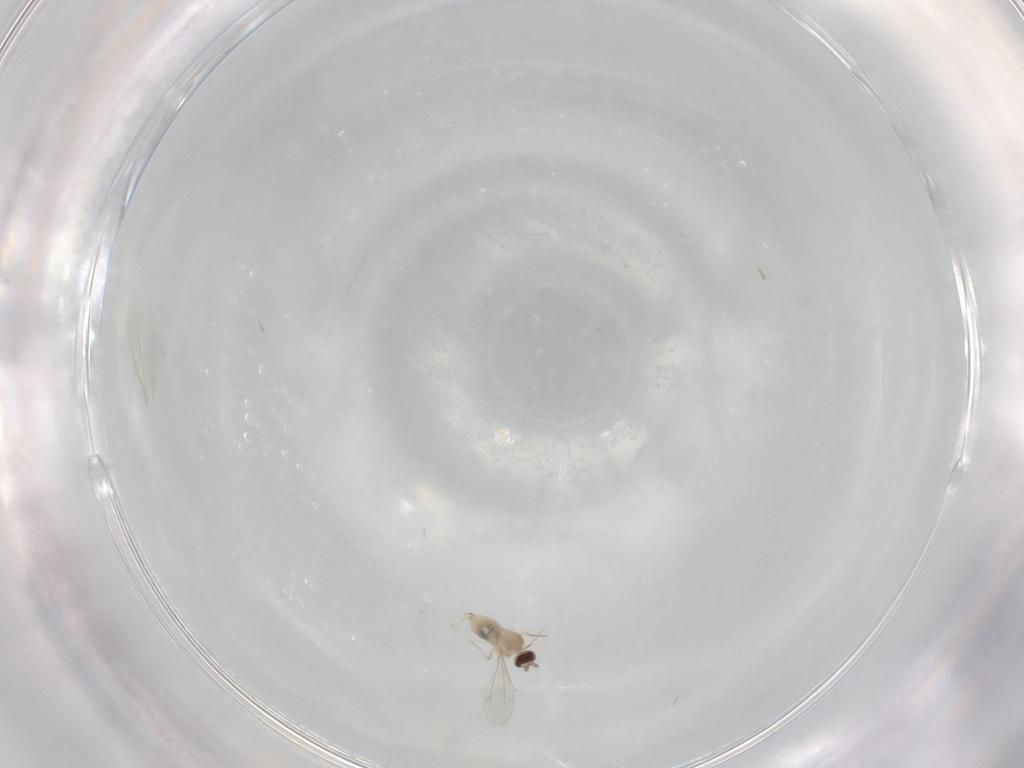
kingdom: Animalia
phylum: Arthropoda
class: Insecta
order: Diptera
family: Cecidomyiidae
